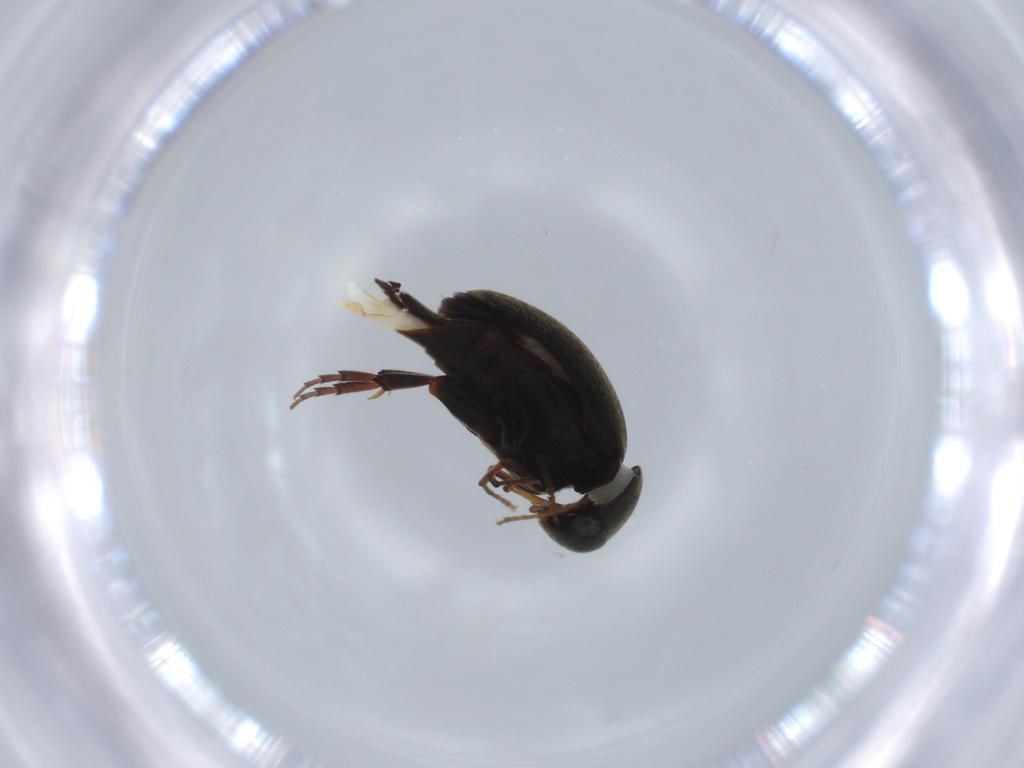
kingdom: Animalia
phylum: Arthropoda
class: Insecta
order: Coleoptera
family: Mordellidae
